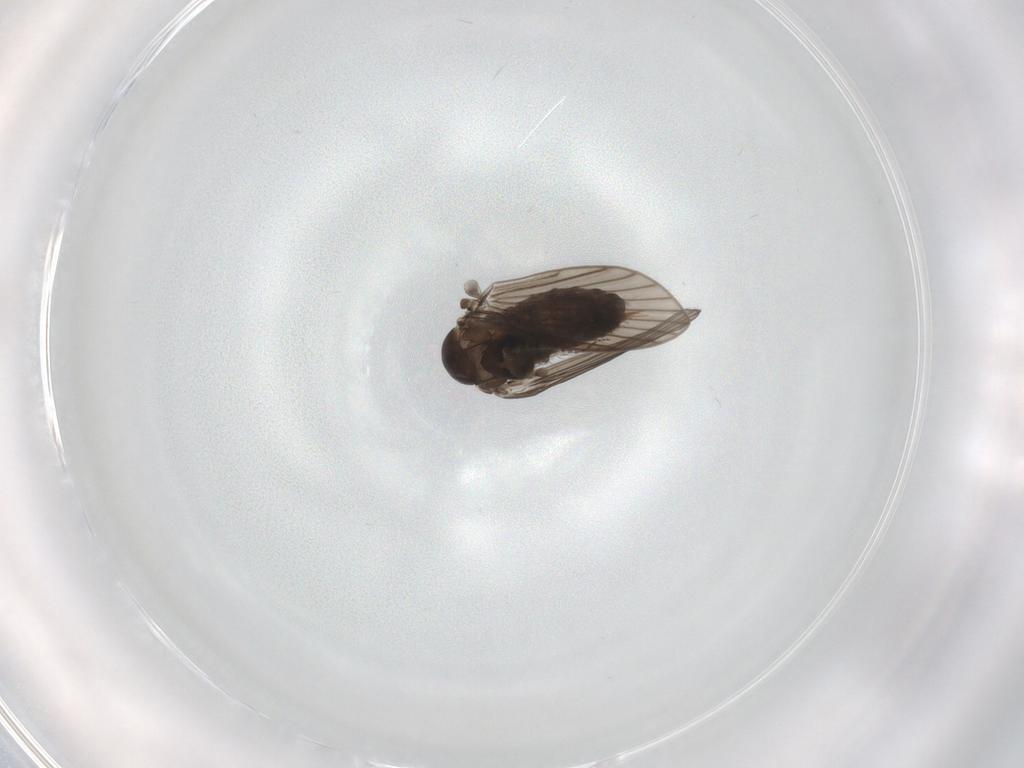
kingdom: Animalia
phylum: Arthropoda
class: Insecta
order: Diptera
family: Psychodidae
